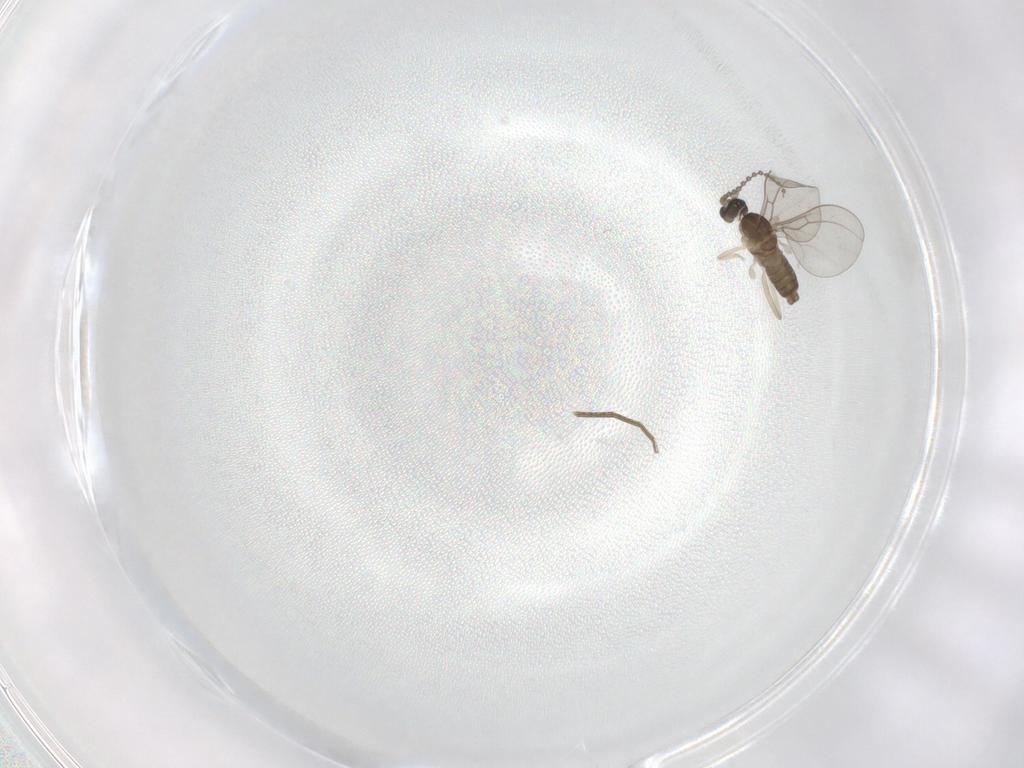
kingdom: Animalia
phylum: Arthropoda
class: Insecta
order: Diptera
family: Cecidomyiidae
